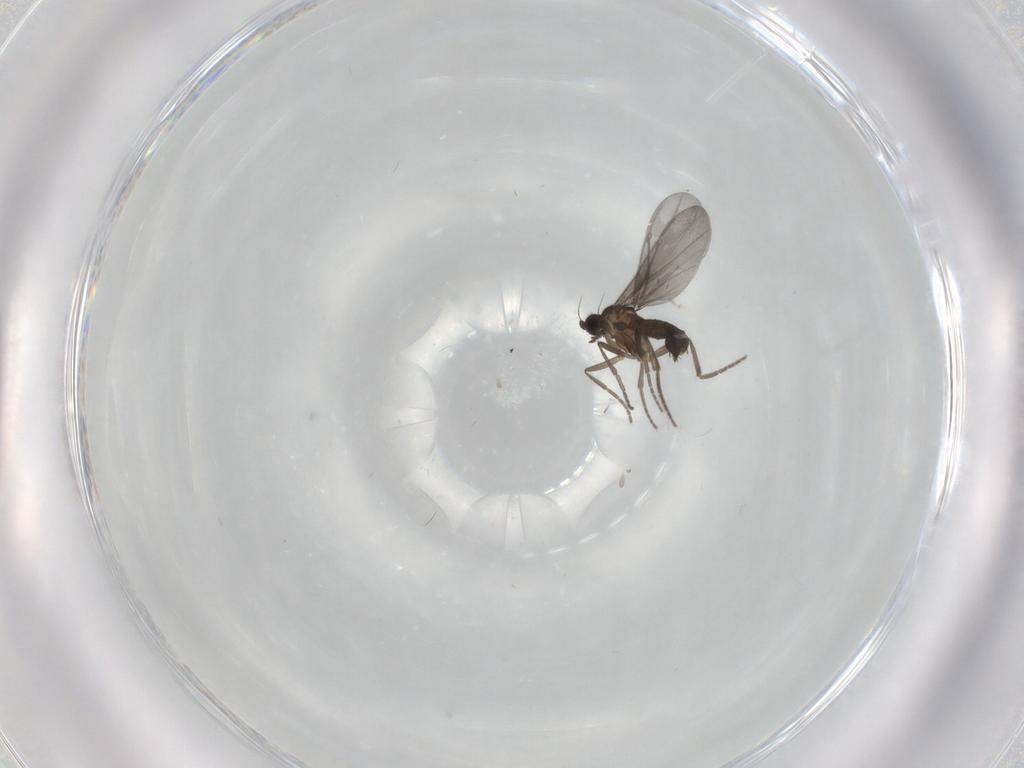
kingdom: Animalia
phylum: Arthropoda
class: Insecta
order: Diptera
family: Phoridae
